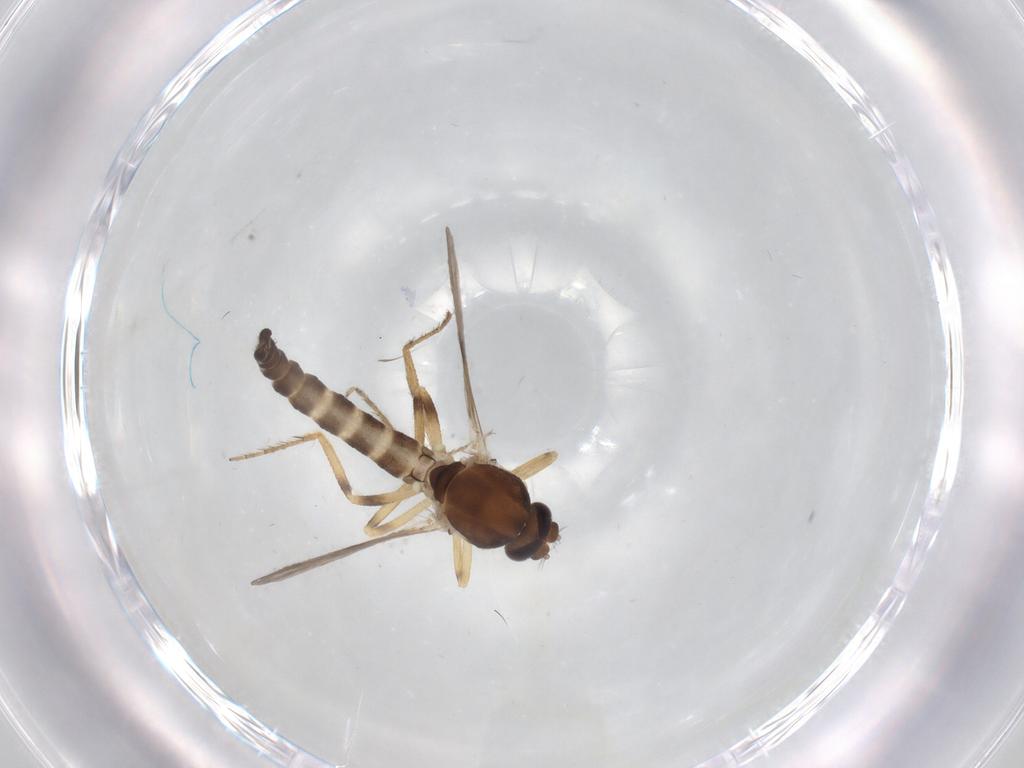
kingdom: Animalia
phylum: Arthropoda
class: Insecta
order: Diptera
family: Ceratopogonidae
